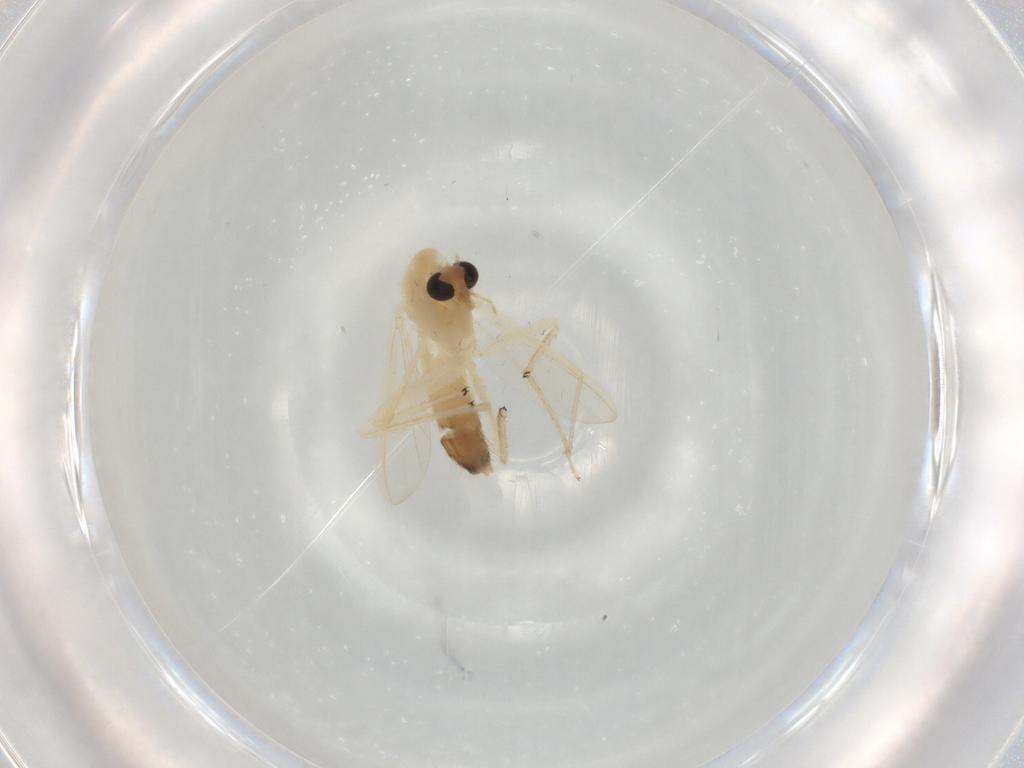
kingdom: Animalia
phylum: Arthropoda
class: Insecta
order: Diptera
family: Chironomidae
